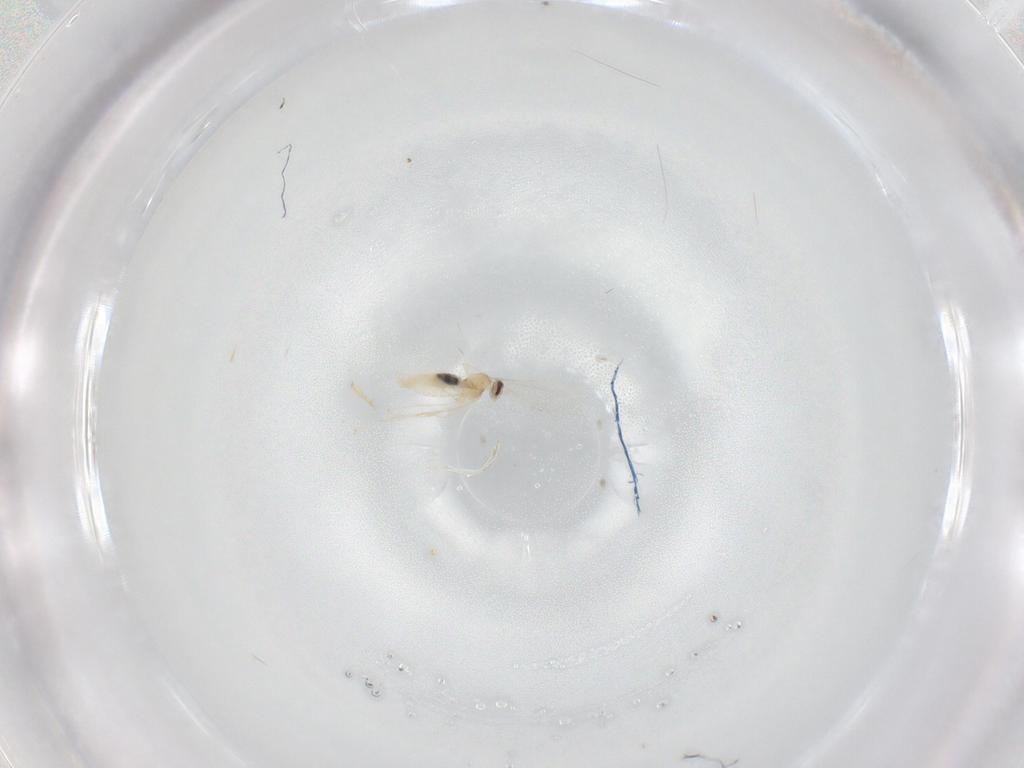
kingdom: Animalia
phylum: Arthropoda
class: Insecta
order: Diptera
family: Cecidomyiidae
